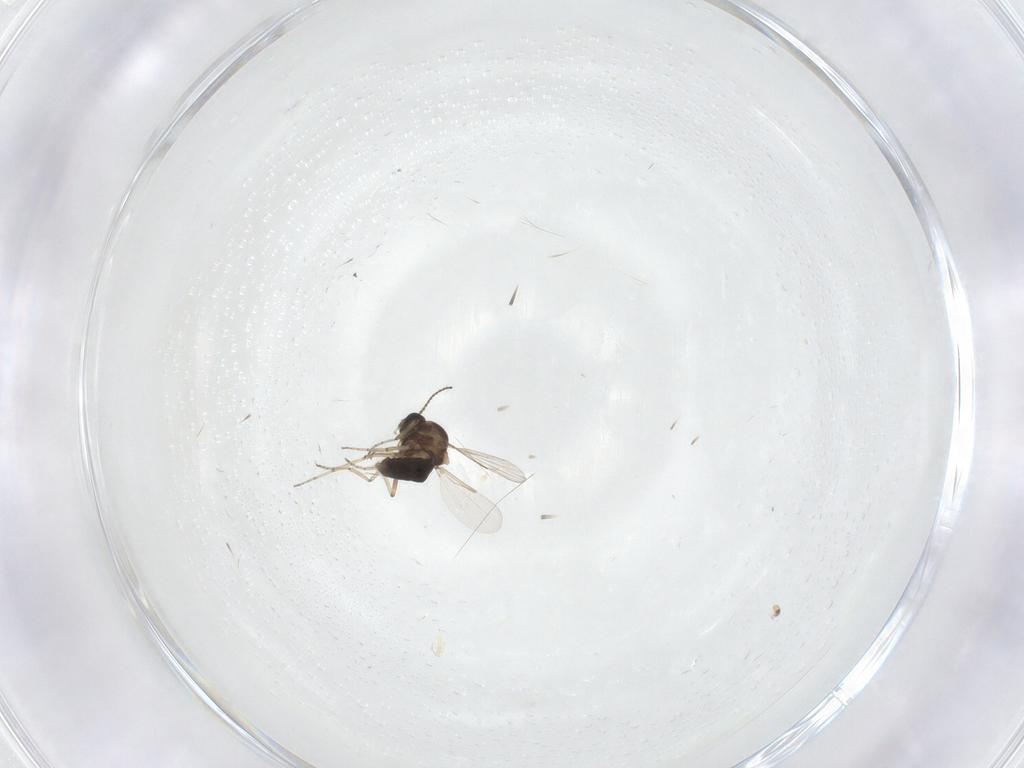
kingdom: Animalia
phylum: Arthropoda
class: Insecta
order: Diptera
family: Ceratopogonidae
